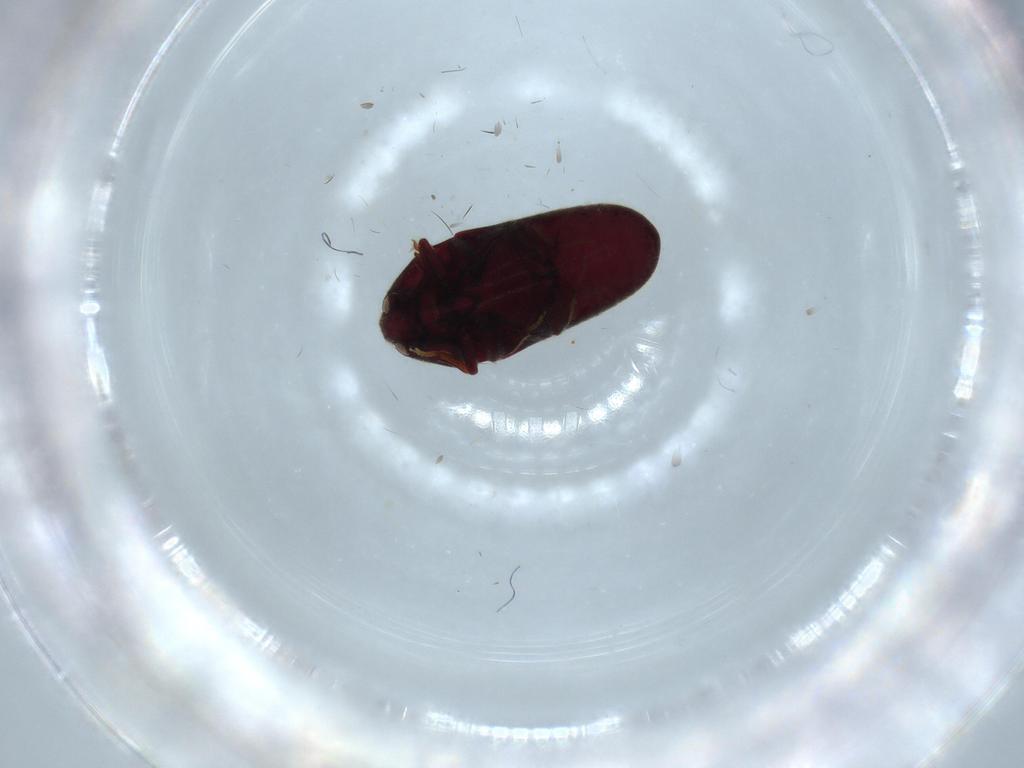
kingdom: Animalia
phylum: Arthropoda
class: Insecta
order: Coleoptera
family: Throscidae
